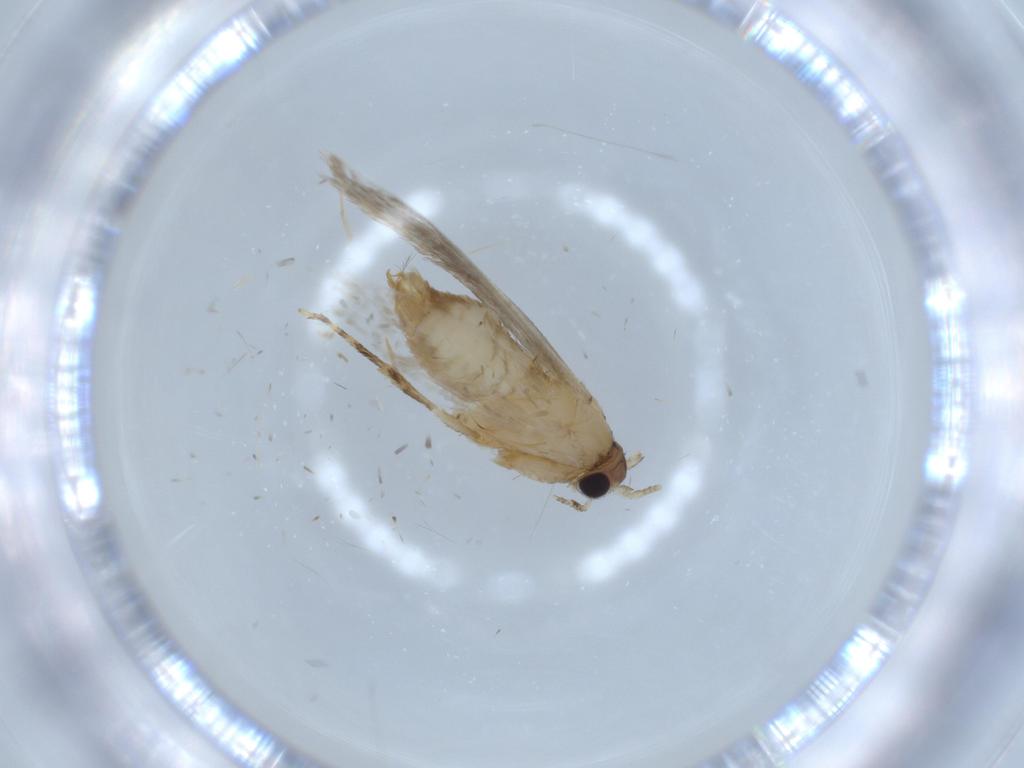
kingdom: Animalia
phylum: Arthropoda
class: Insecta
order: Lepidoptera
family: Tineidae
